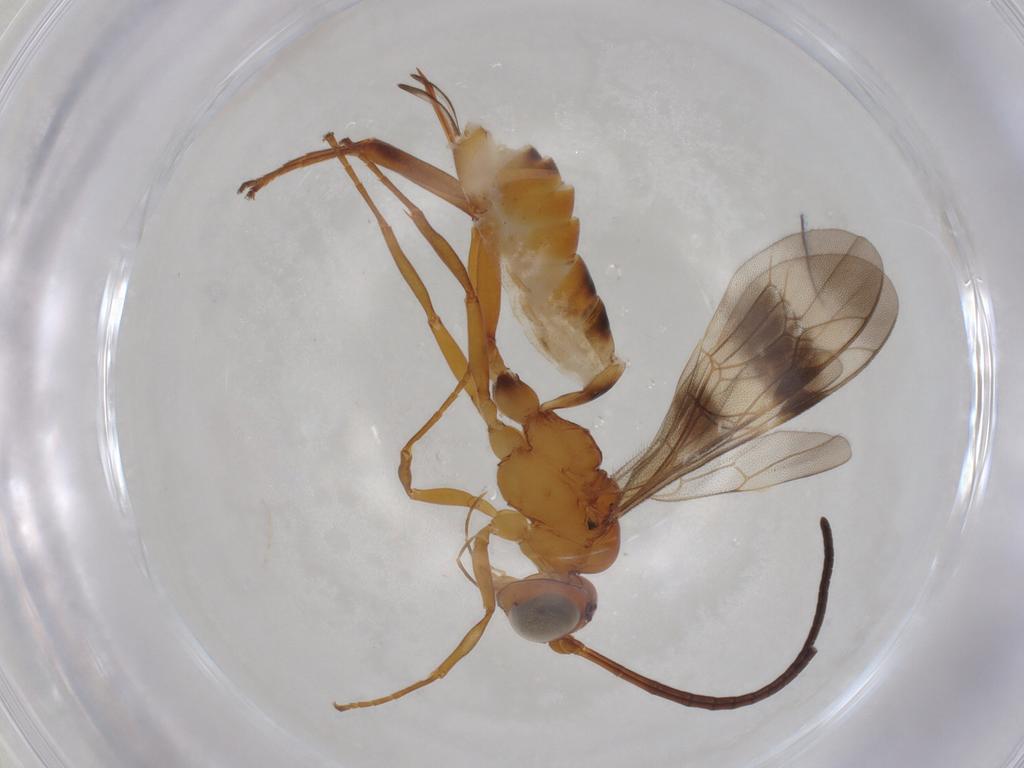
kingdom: Animalia
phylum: Arthropoda
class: Insecta
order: Hymenoptera
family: Ichneumonidae
